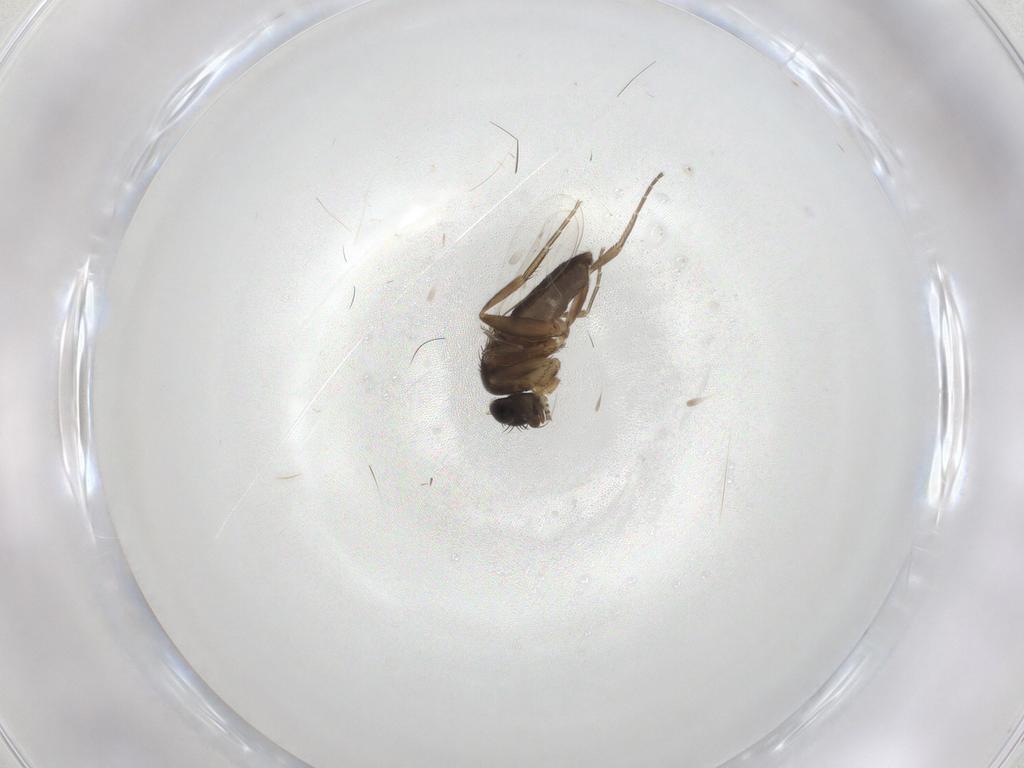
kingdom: Animalia
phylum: Arthropoda
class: Insecta
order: Diptera
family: Phoridae
